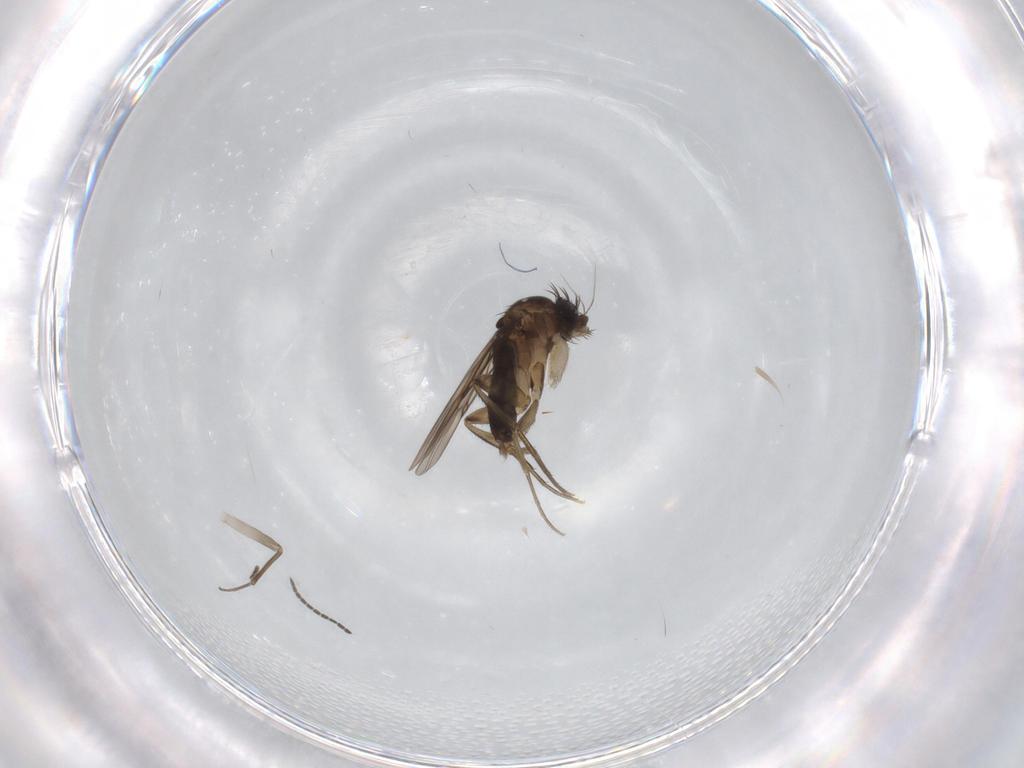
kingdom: Animalia
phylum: Arthropoda
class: Insecta
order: Diptera
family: Sciaridae
